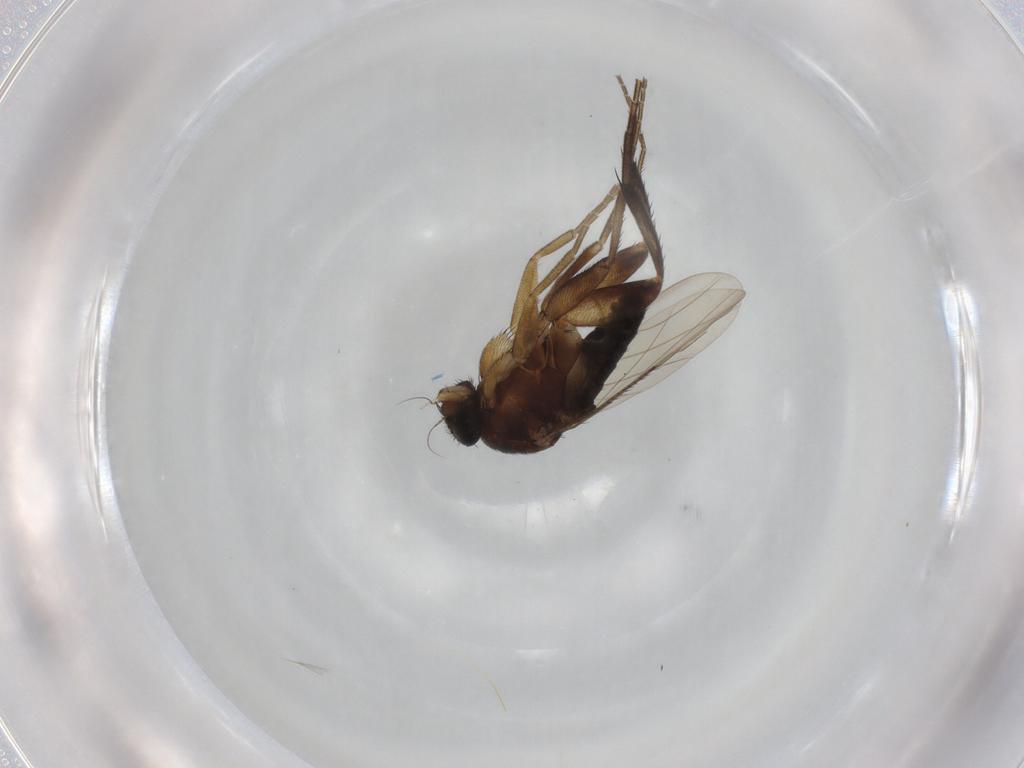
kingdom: Animalia
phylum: Arthropoda
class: Insecta
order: Diptera
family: Phoridae
